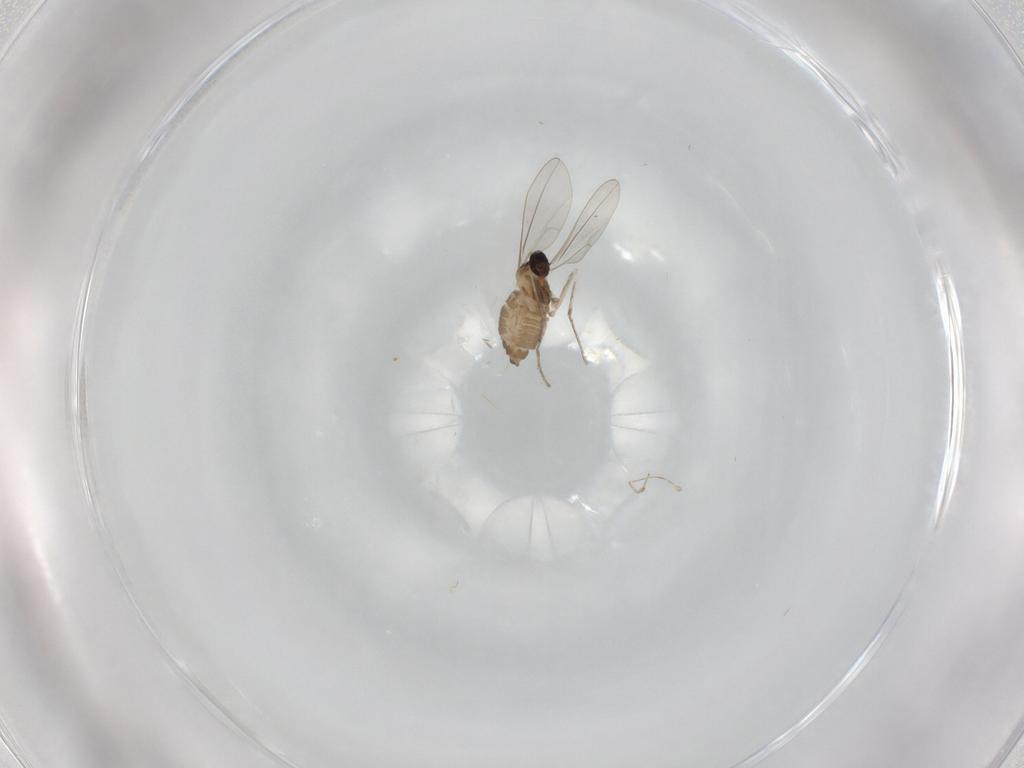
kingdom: Animalia
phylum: Arthropoda
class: Insecta
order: Diptera
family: Cecidomyiidae
